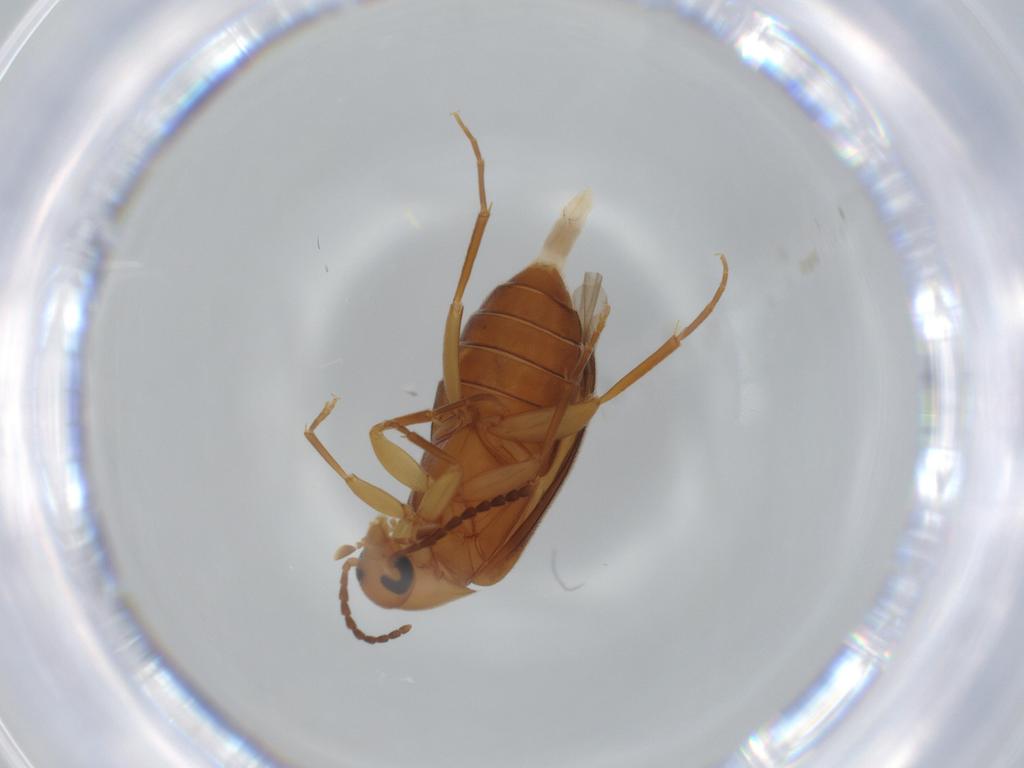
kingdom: Animalia
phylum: Arthropoda
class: Insecta
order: Coleoptera
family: Scraptiidae
